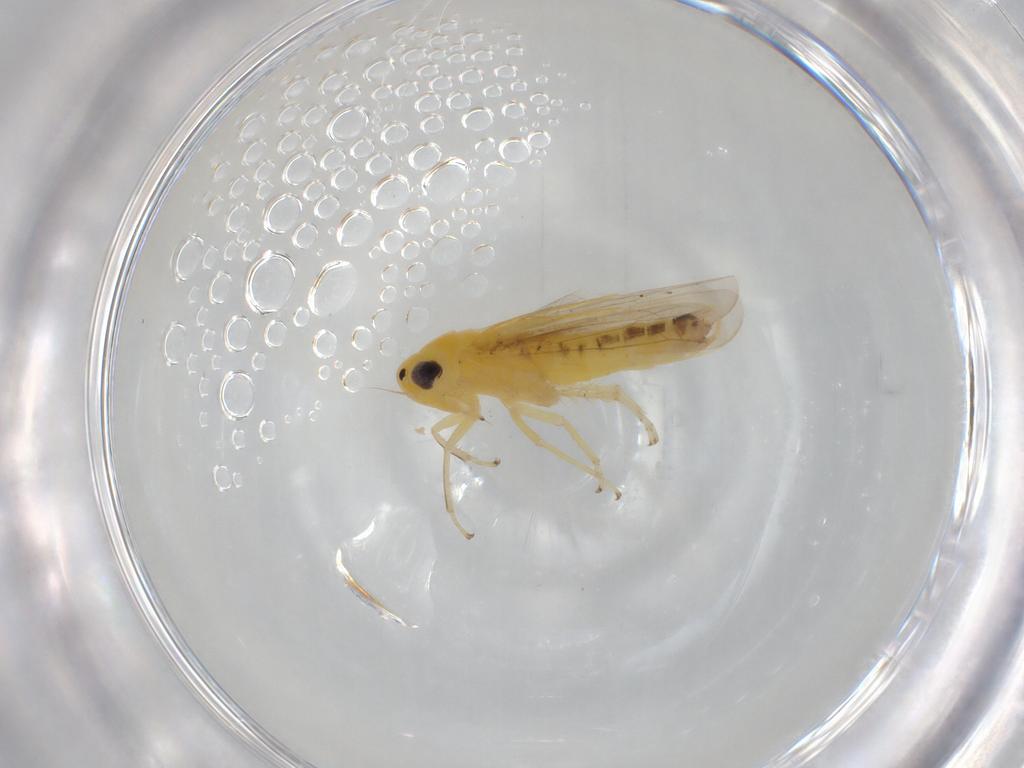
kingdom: Animalia
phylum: Arthropoda
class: Insecta
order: Hemiptera
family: Cicadellidae
